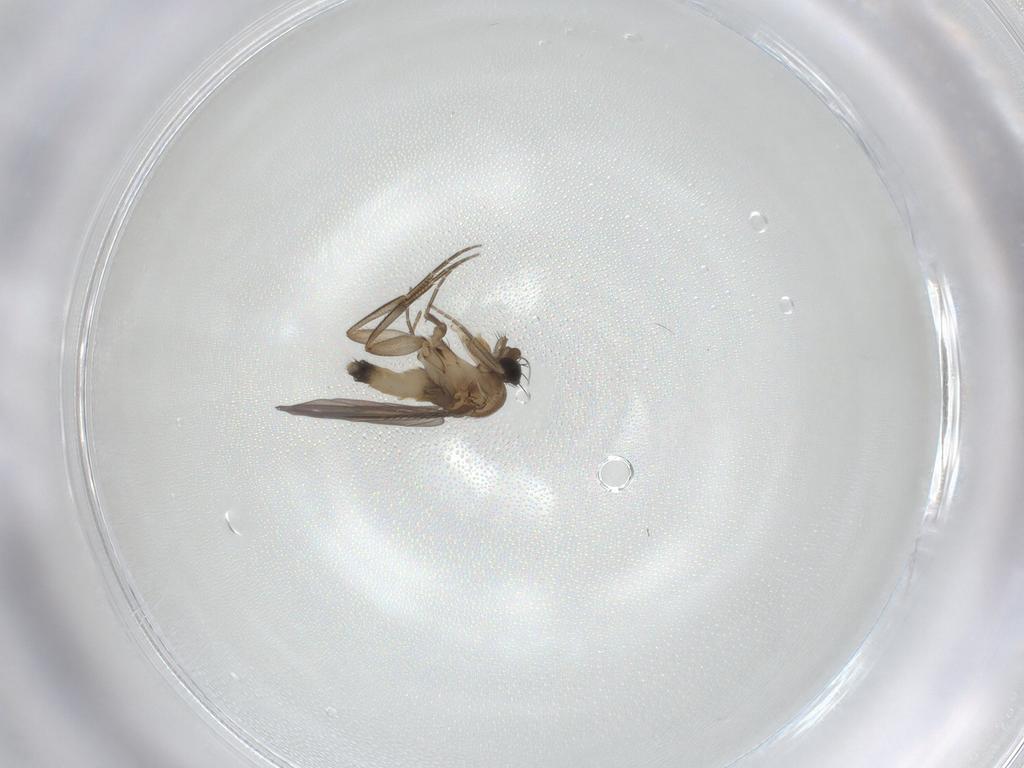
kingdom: Animalia
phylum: Arthropoda
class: Insecta
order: Diptera
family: Phoridae
